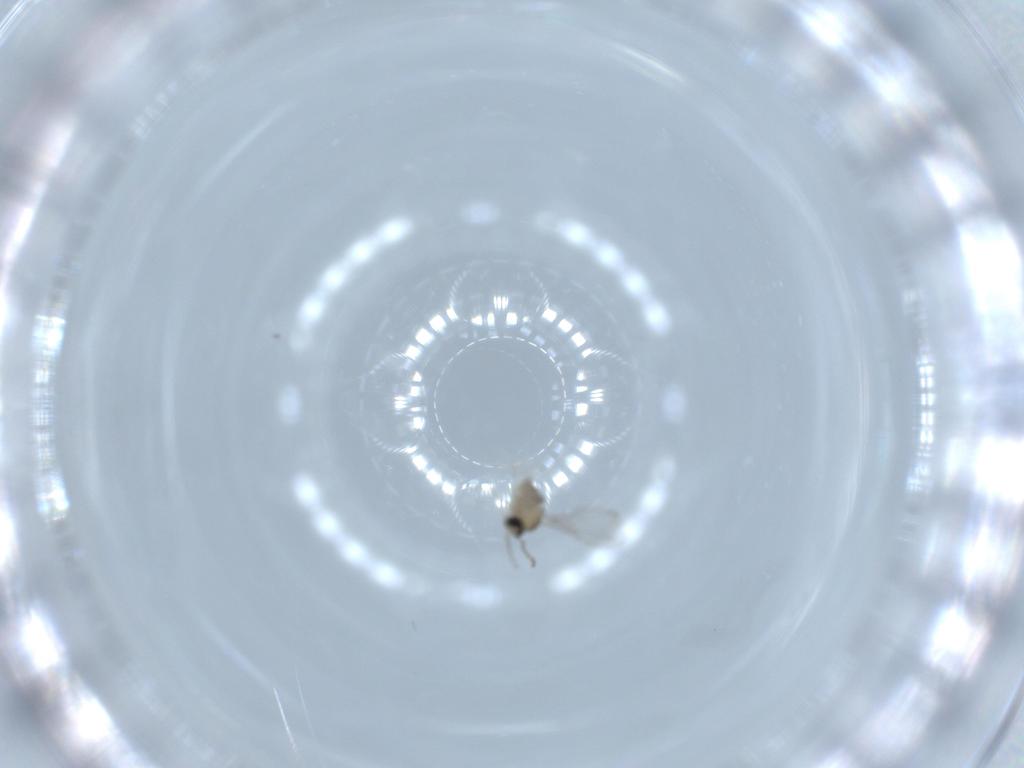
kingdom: Animalia
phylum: Arthropoda
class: Insecta
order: Diptera
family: Cecidomyiidae
